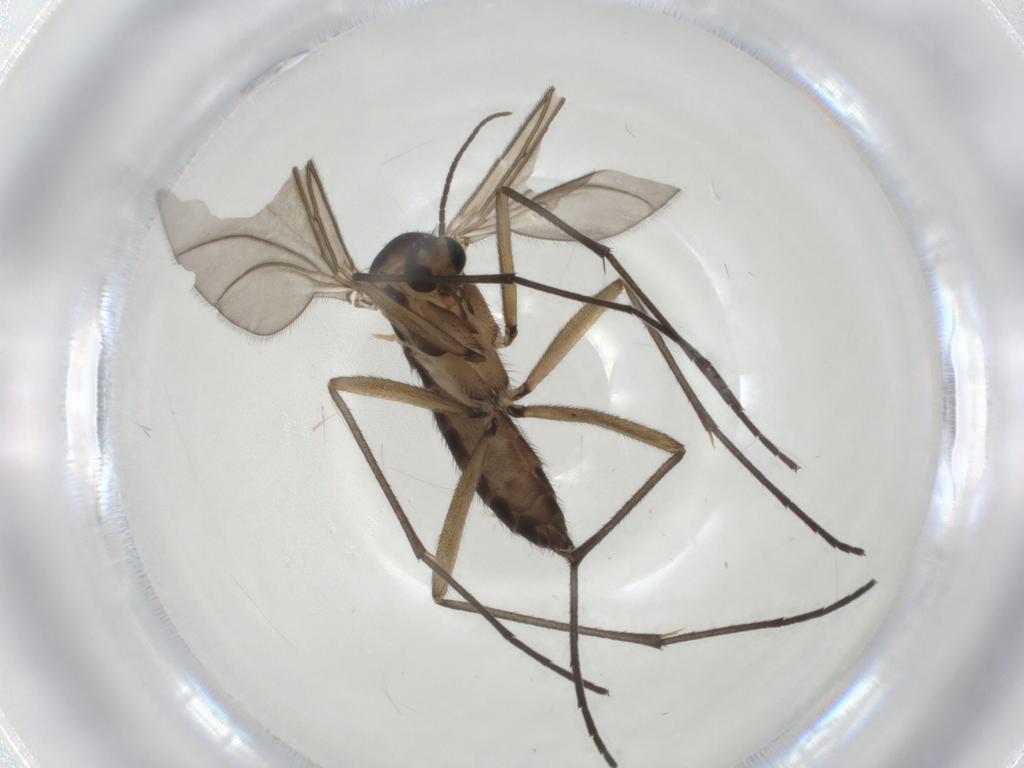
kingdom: Animalia
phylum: Arthropoda
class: Insecta
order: Diptera
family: Sciaridae
